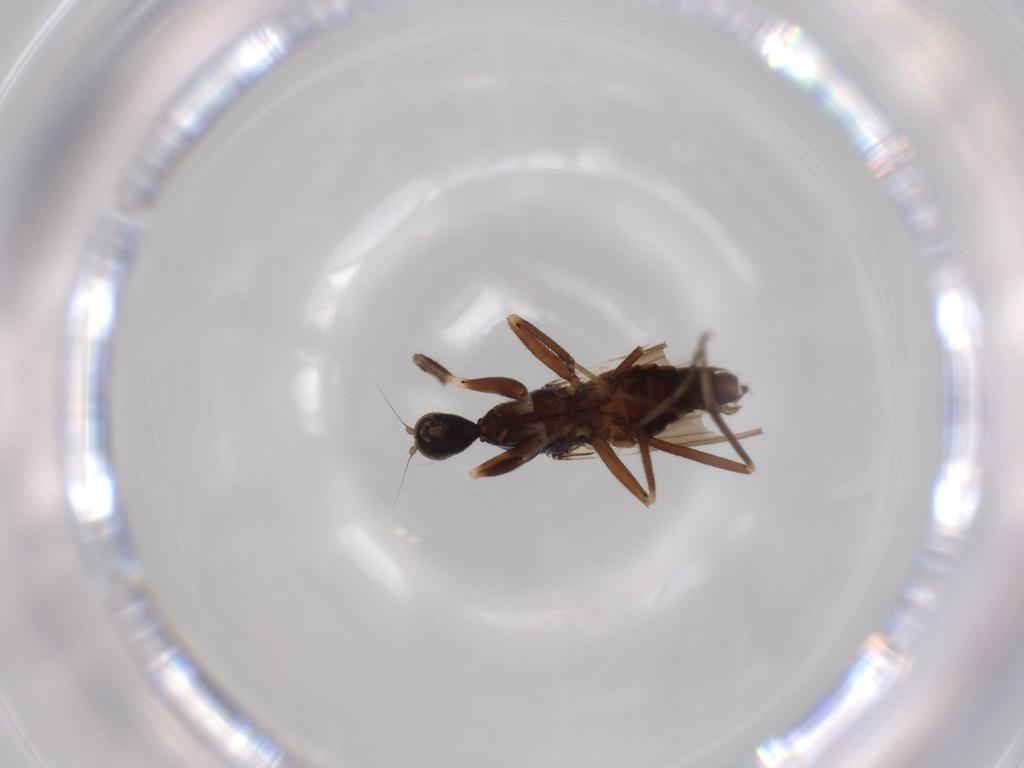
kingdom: Animalia
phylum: Arthropoda
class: Insecta
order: Diptera
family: Hybotidae
